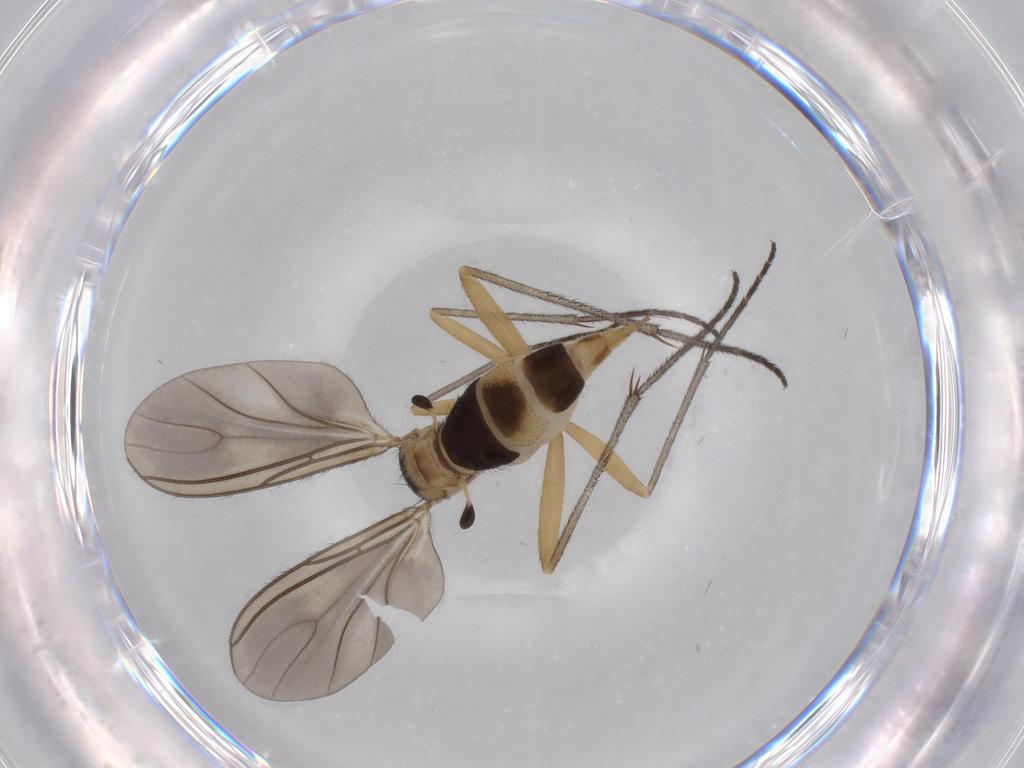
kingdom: Animalia
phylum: Arthropoda
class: Insecta
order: Diptera
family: Sciaridae
